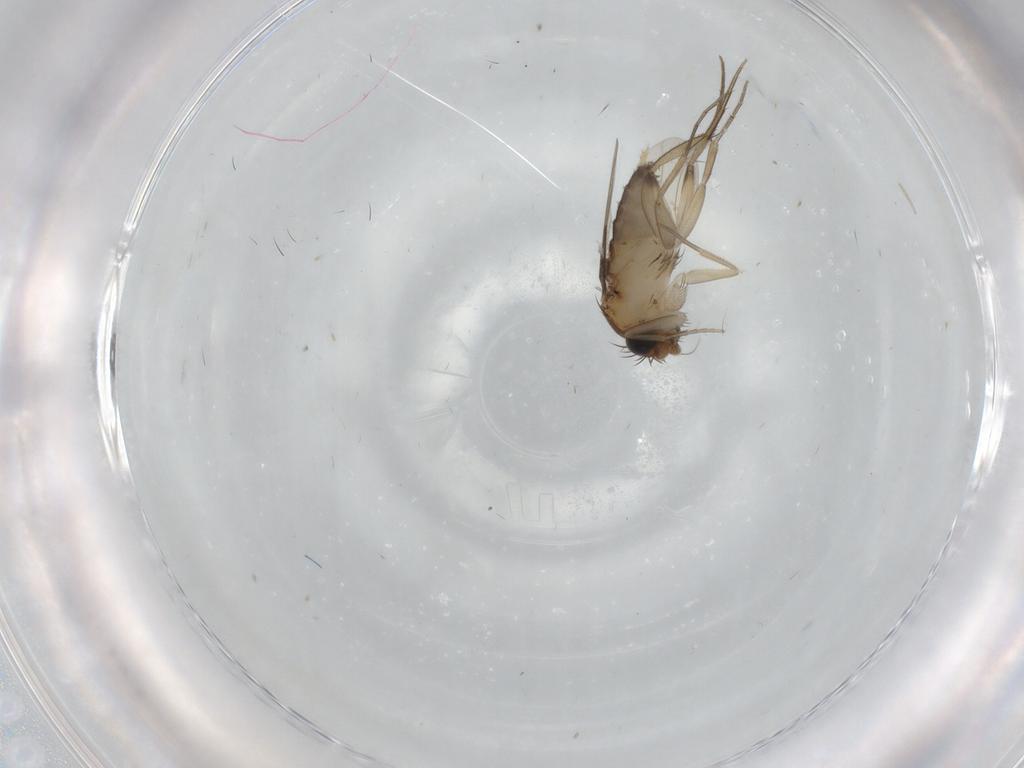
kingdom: Animalia
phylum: Arthropoda
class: Insecta
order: Diptera
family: Phoridae
